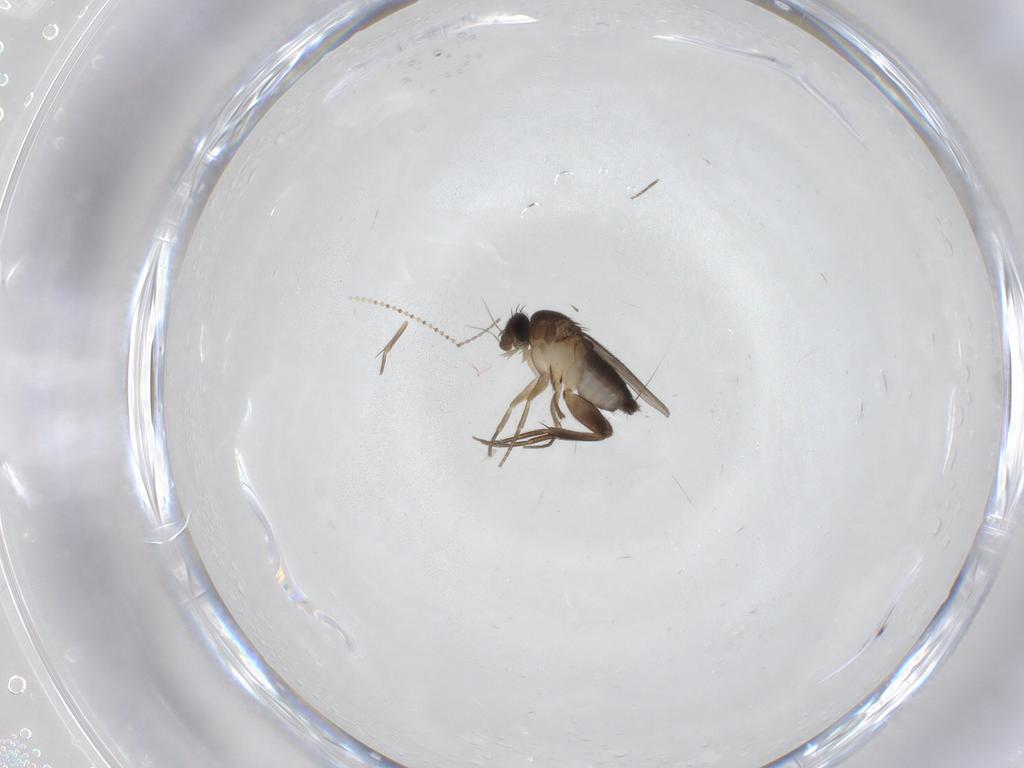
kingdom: Animalia
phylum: Arthropoda
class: Insecta
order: Diptera
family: Phoridae
